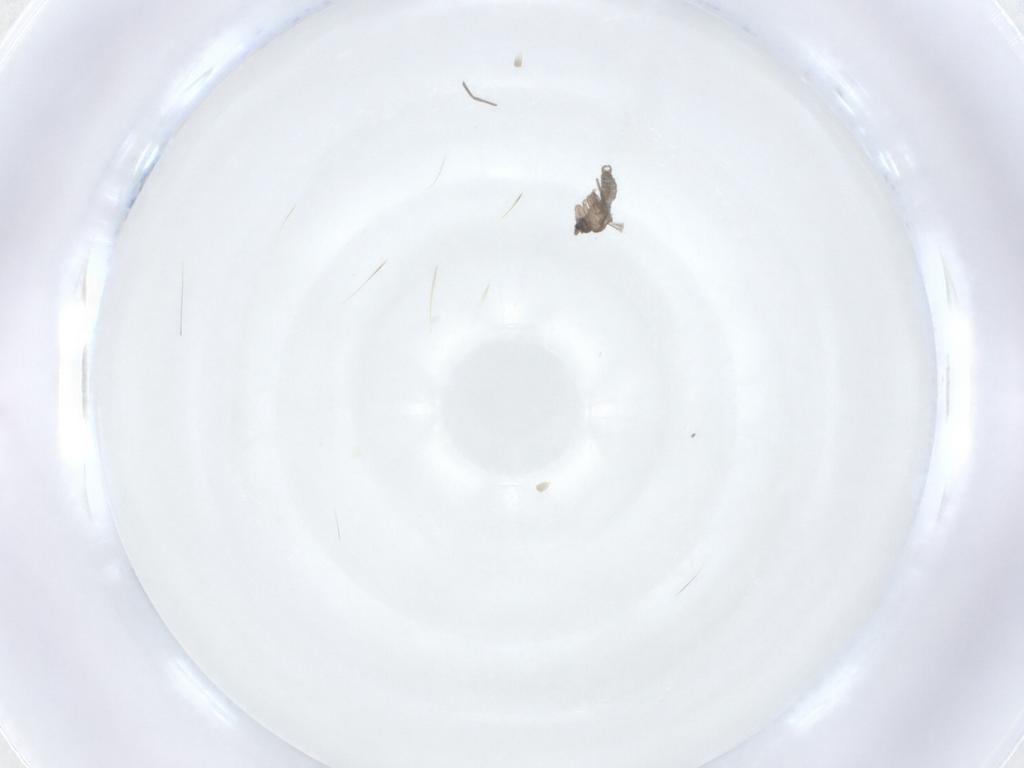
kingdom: Animalia
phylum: Arthropoda
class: Insecta
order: Diptera
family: Sciaridae
